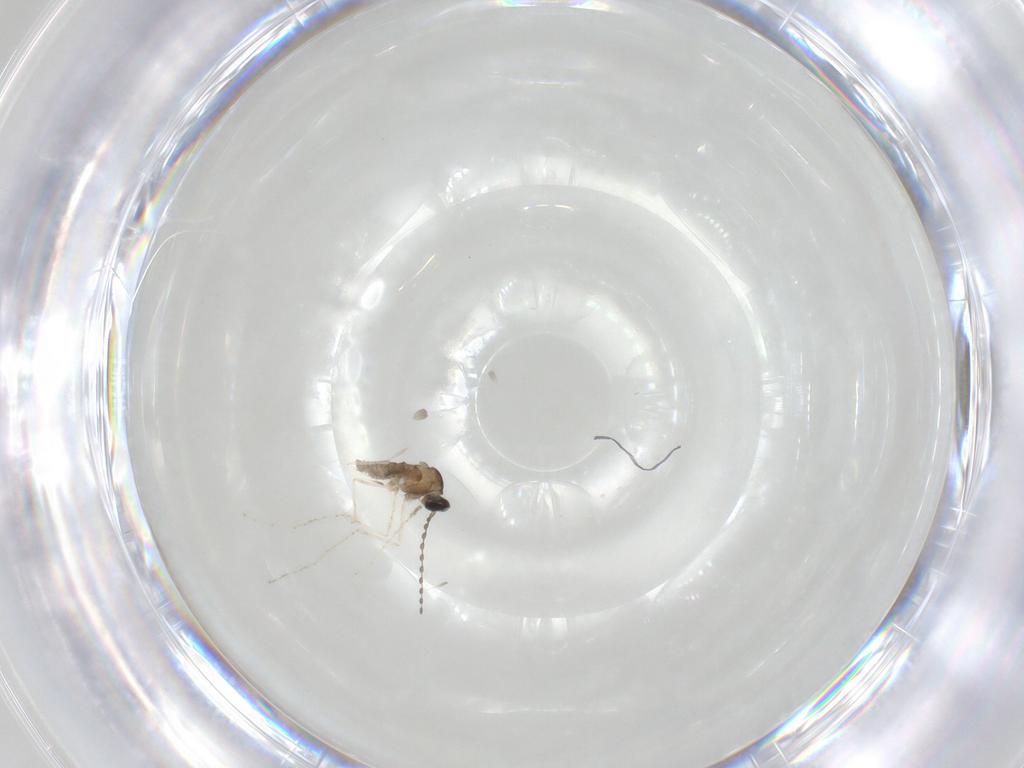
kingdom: Animalia
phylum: Arthropoda
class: Insecta
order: Diptera
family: Cecidomyiidae
